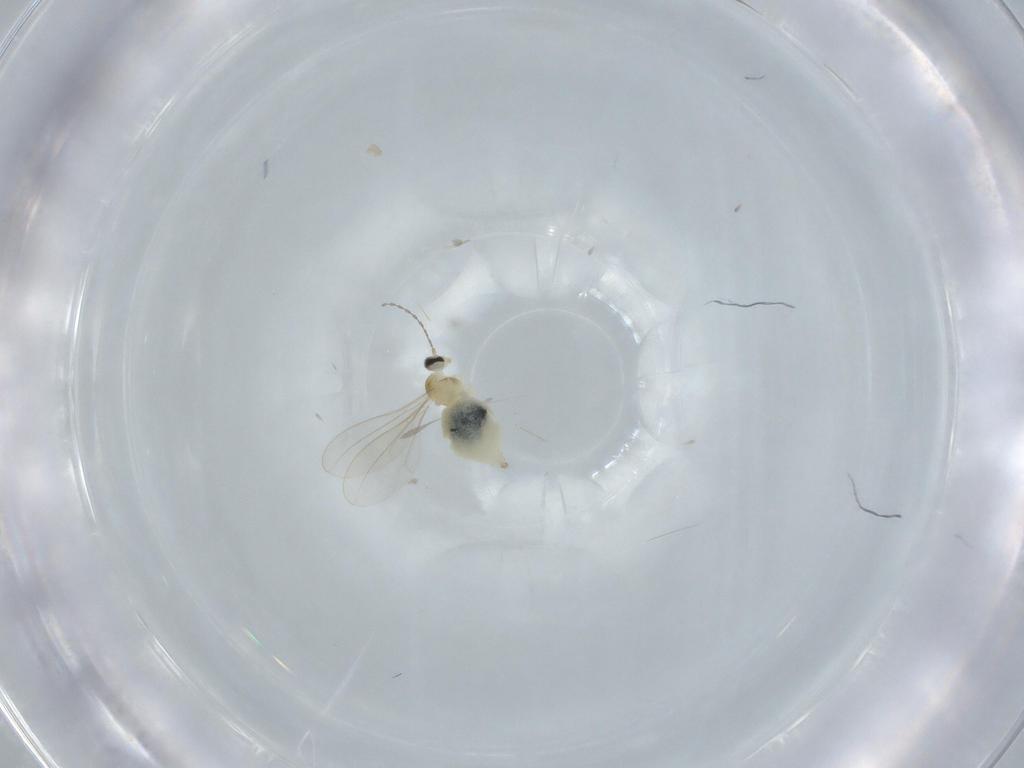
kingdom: Animalia
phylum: Arthropoda
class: Insecta
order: Diptera
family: Cecidomyiidae
